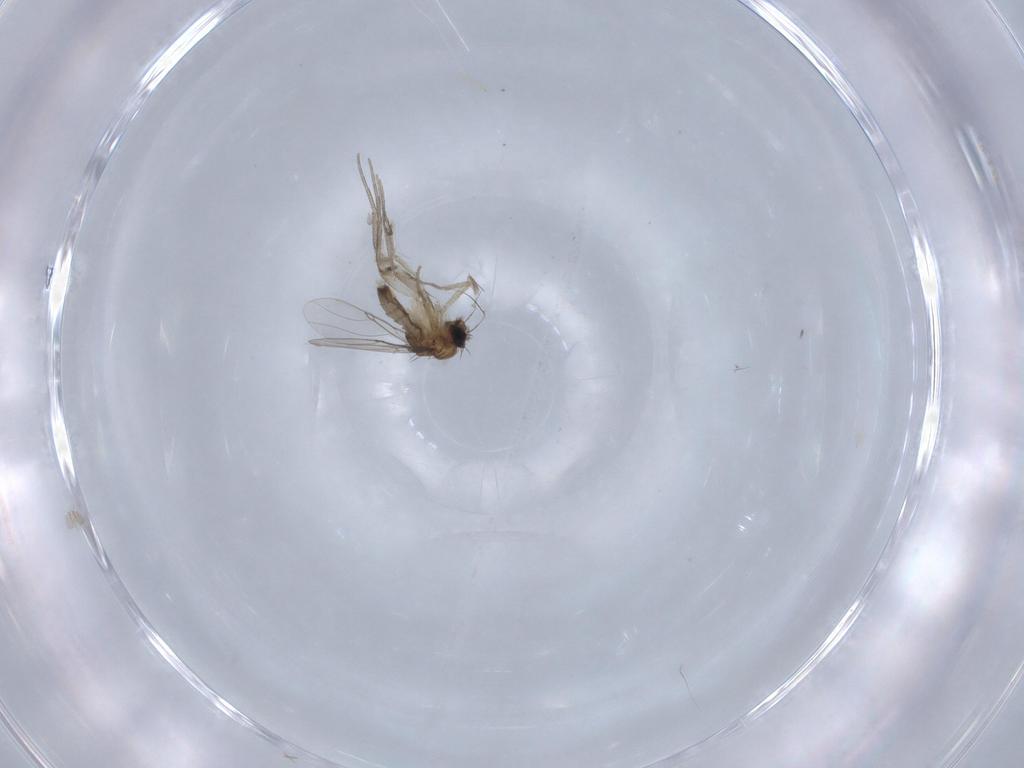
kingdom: Animalia
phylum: Arthropoda
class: Insecta
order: Diptera
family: Phoridae
